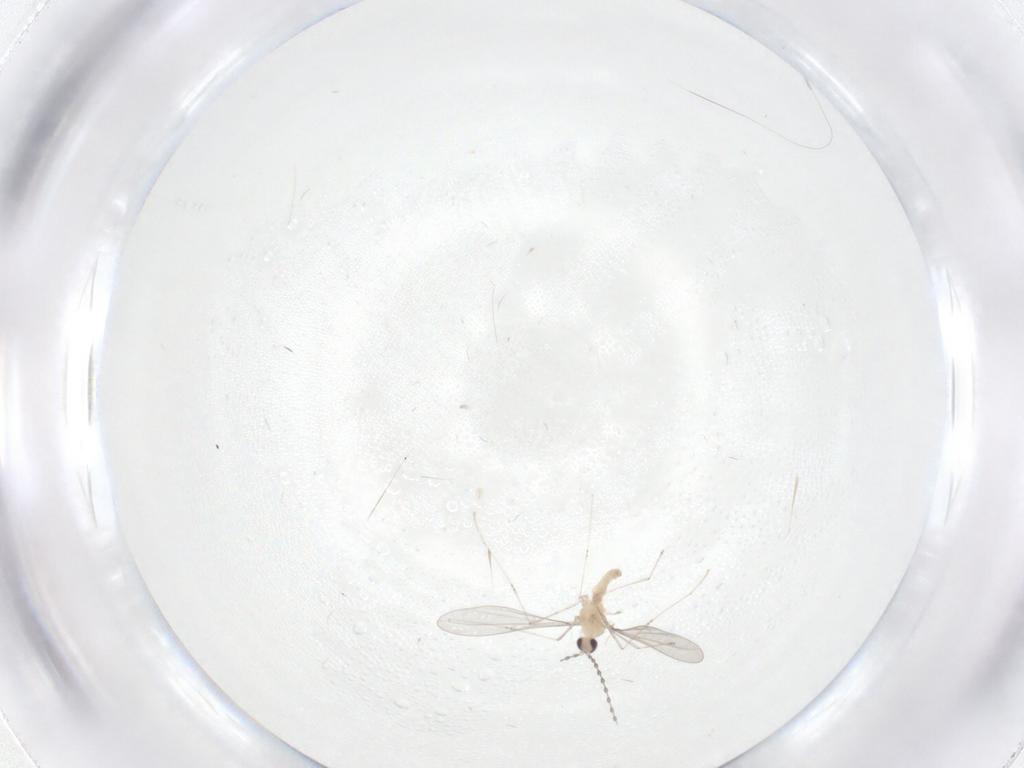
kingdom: Animalia
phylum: Arthropoda
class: Insecta
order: Diptera
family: Cecidomyiidae
